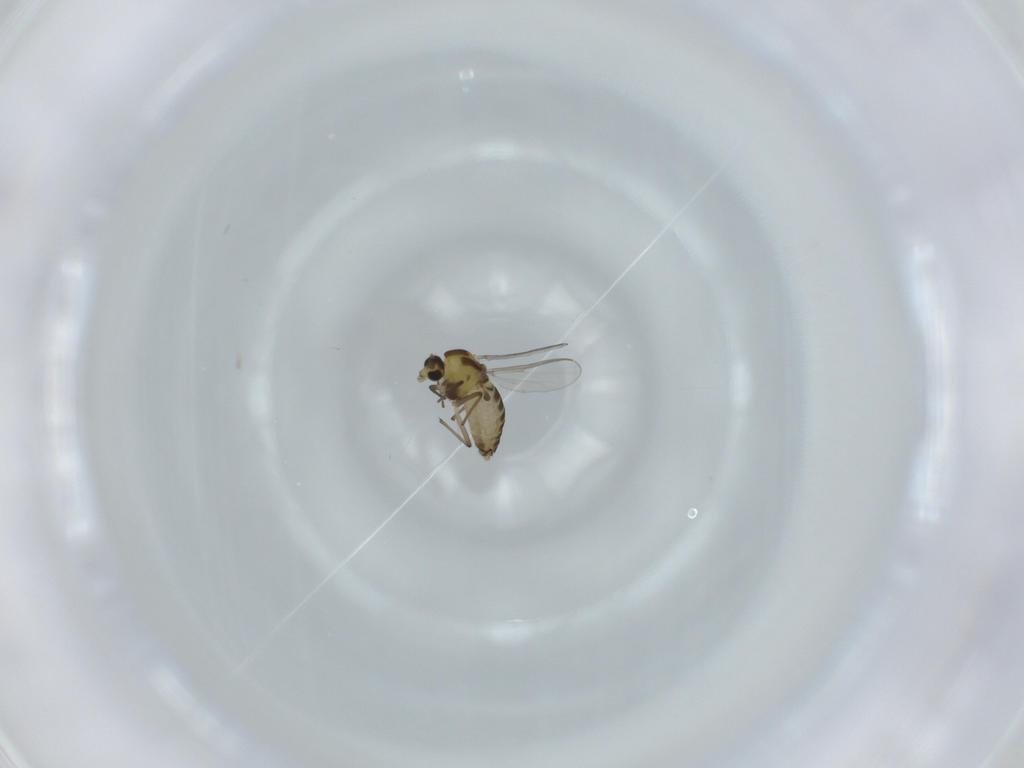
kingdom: Animalia
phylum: Arthropoda
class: Insecta
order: Diptera
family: Chironomidae
